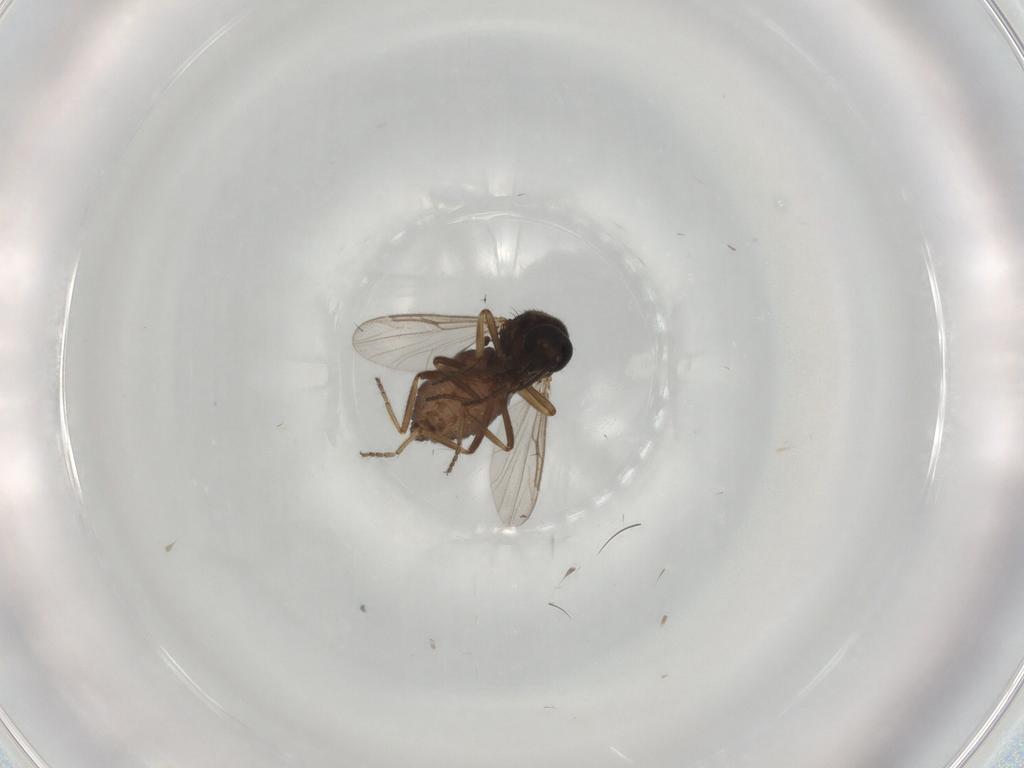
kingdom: Animalia
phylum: Arthropoda
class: Insecta
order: Diptera
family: Ceratopogonidae
